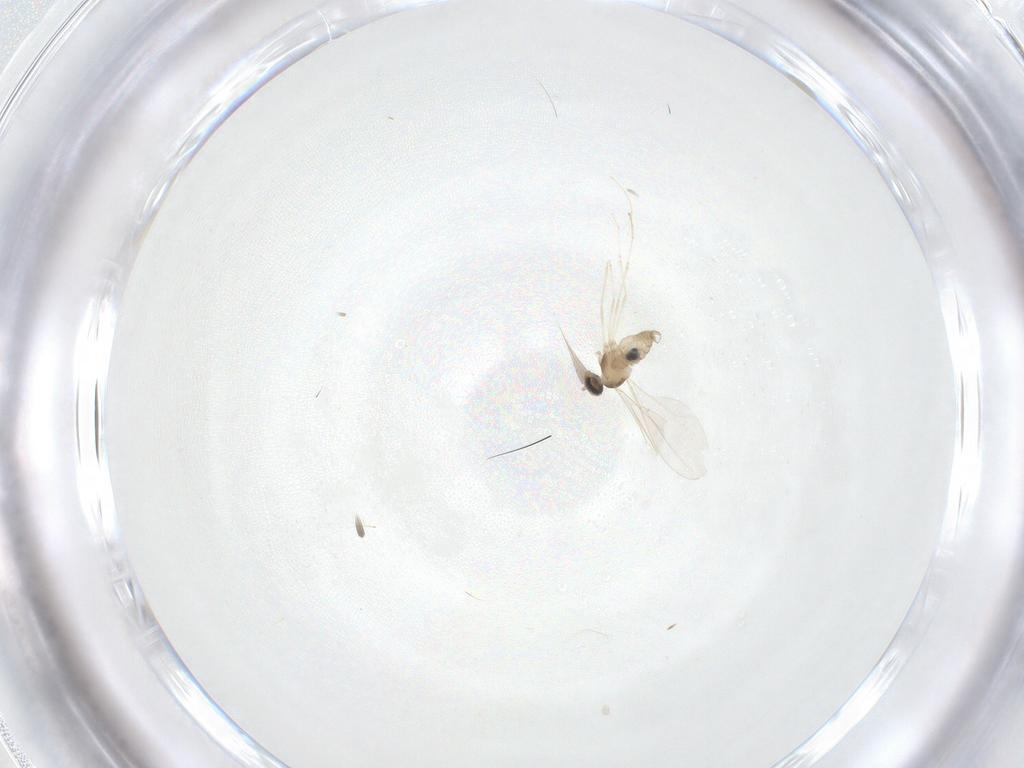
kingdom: Animalia
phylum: Arthropoda
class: Insecta
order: Diptera
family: Cecidomyiidae
